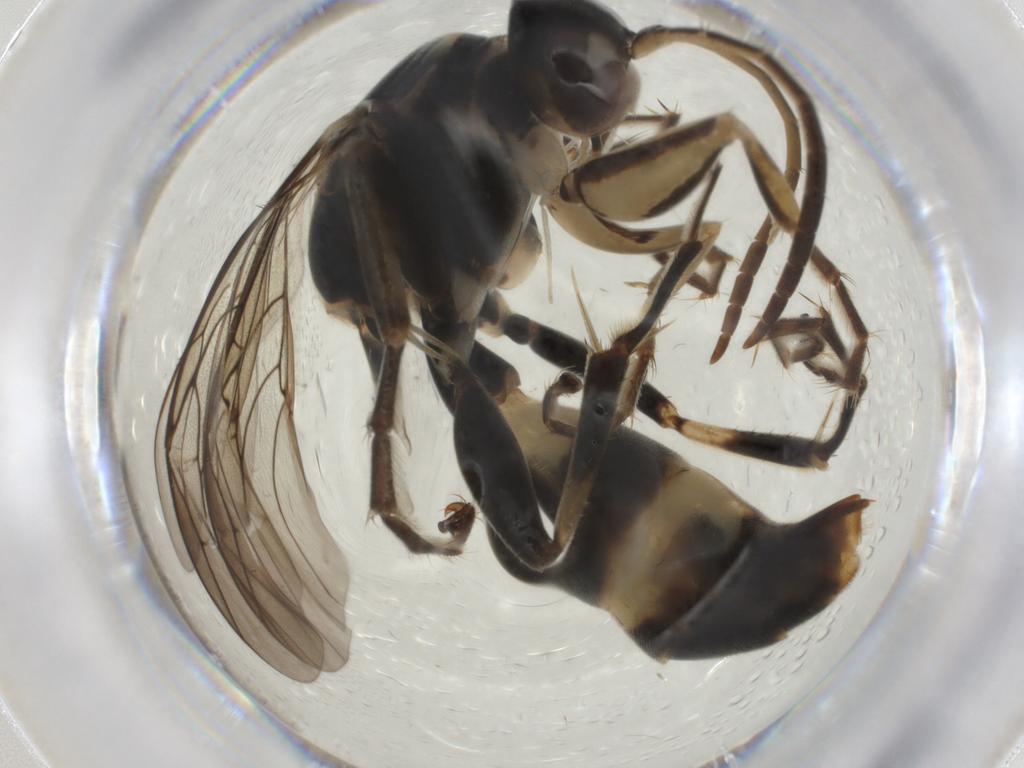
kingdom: Animalia
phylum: Arthropoda
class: Insecta
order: Hymenoptera
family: Rhopalosomatidae
